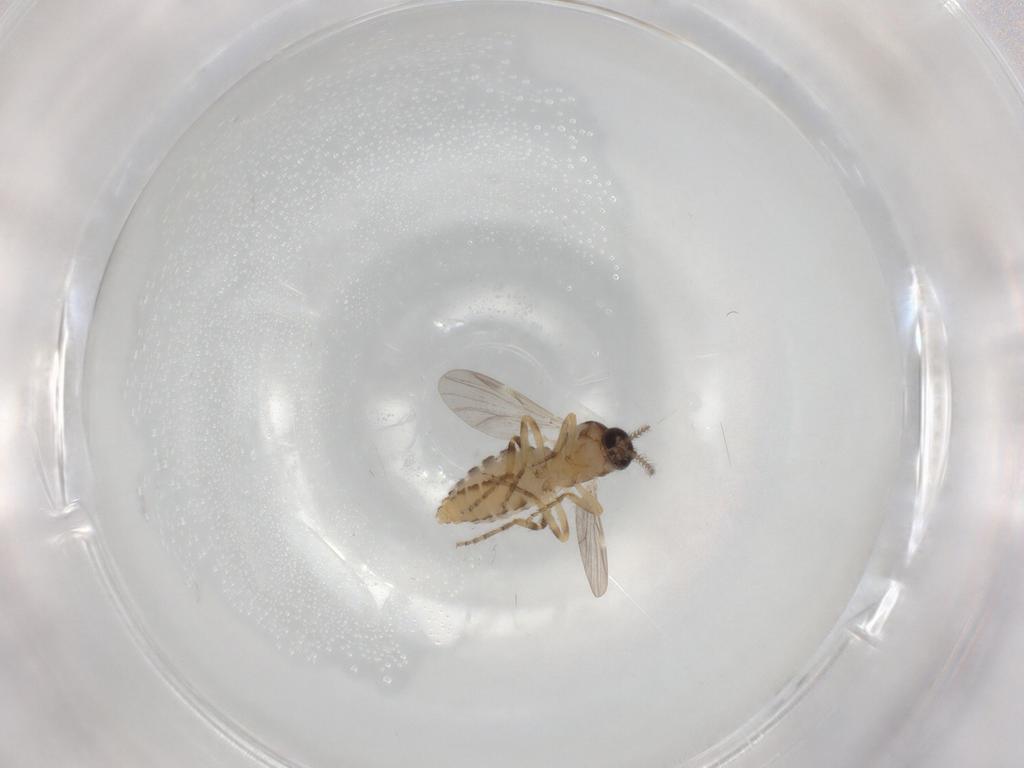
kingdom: Animalia
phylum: Arthropoda
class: Insecta
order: Diptera
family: Ceratopogonidae
